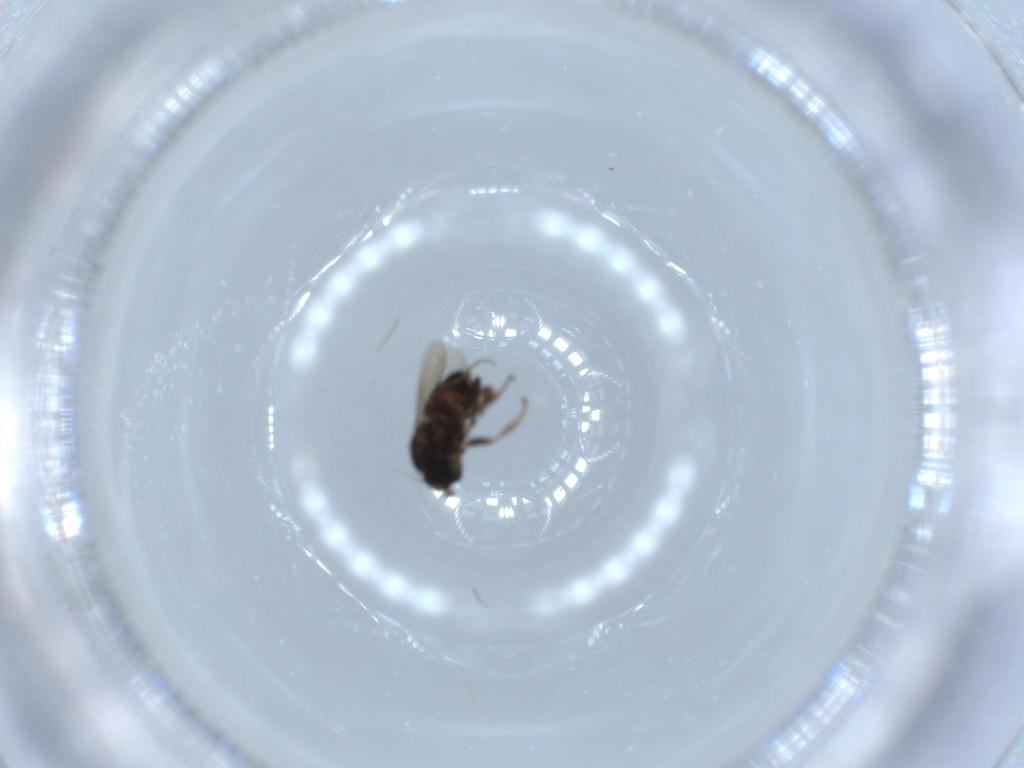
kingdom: Animalia
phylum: Arthropoda
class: Insecta
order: Diptera
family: Sphaeroceridae
